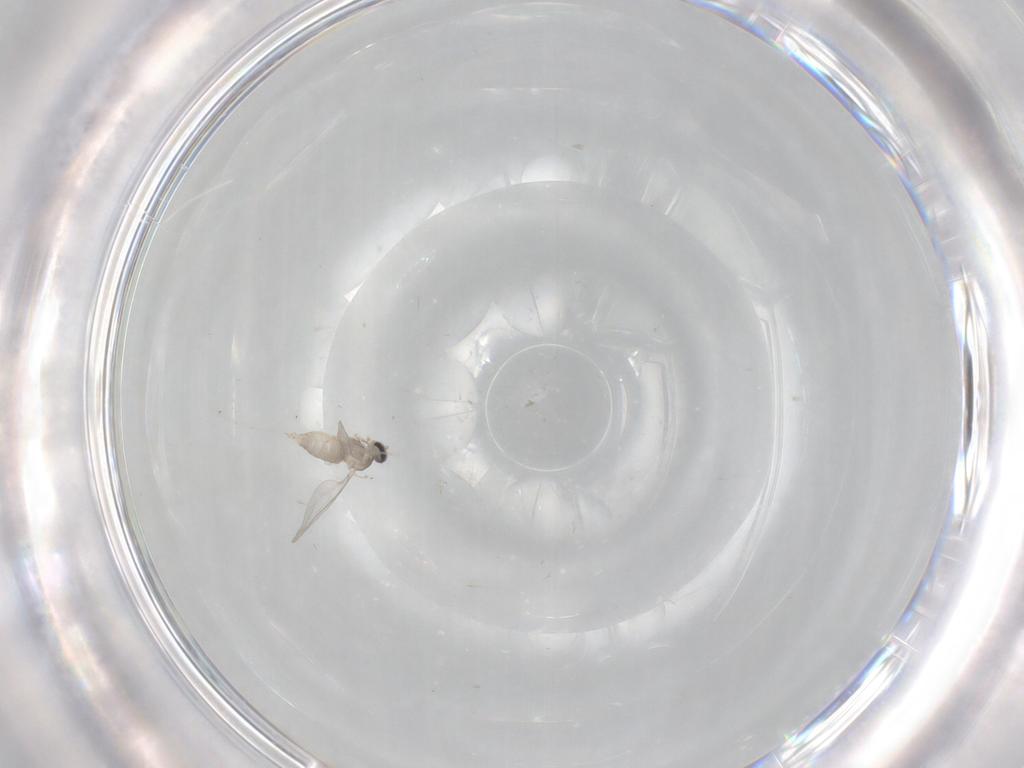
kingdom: Animalia
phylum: Arthropoda
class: Insecta
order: Diptera
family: Cecidomyiidae
